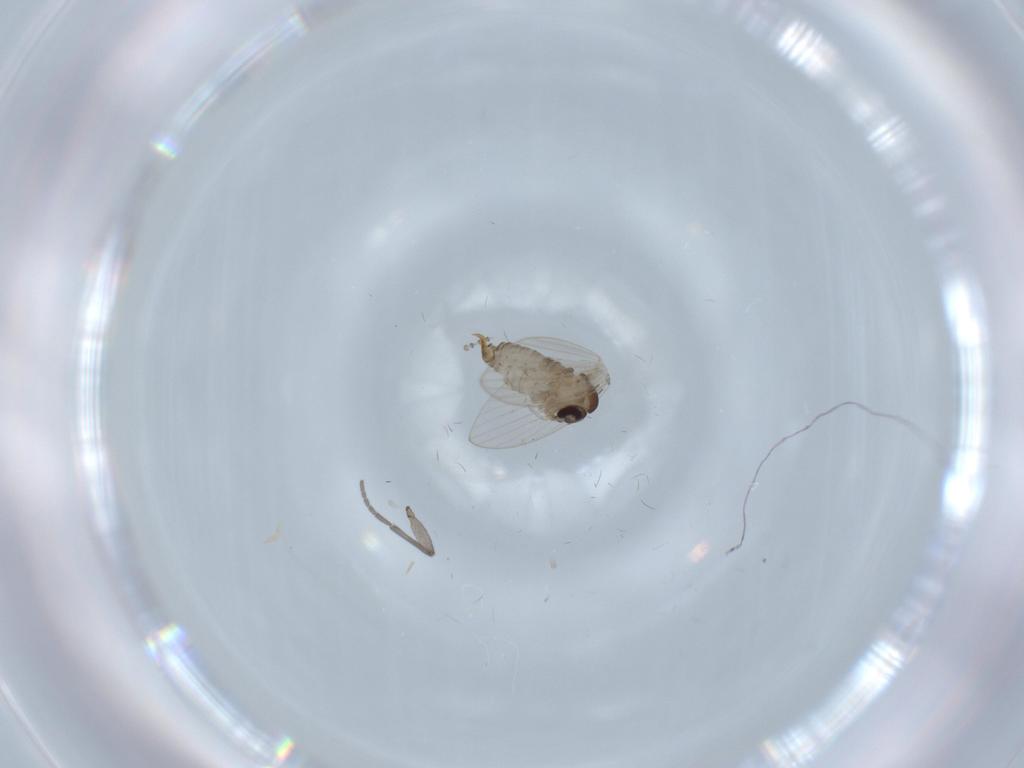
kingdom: Animalia
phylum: Arthropoda
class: Insecta
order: Diptera
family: Psychodidae
